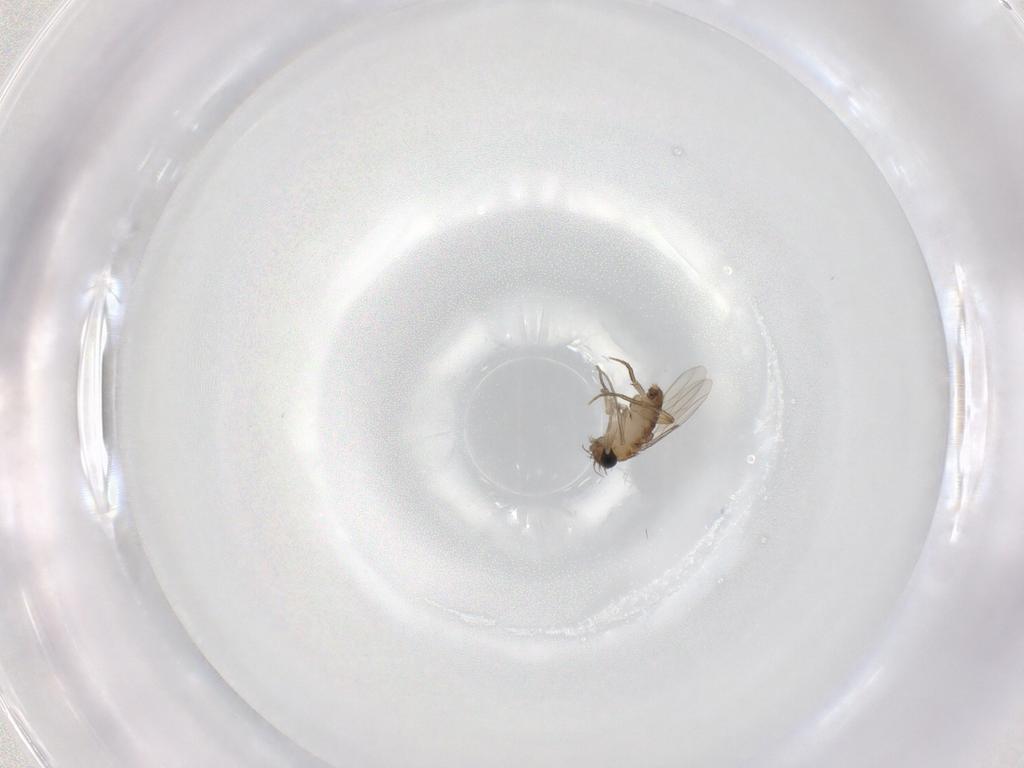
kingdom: Animalia
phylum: Arthropoda
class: Insecta
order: Diptera
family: Phoridae
